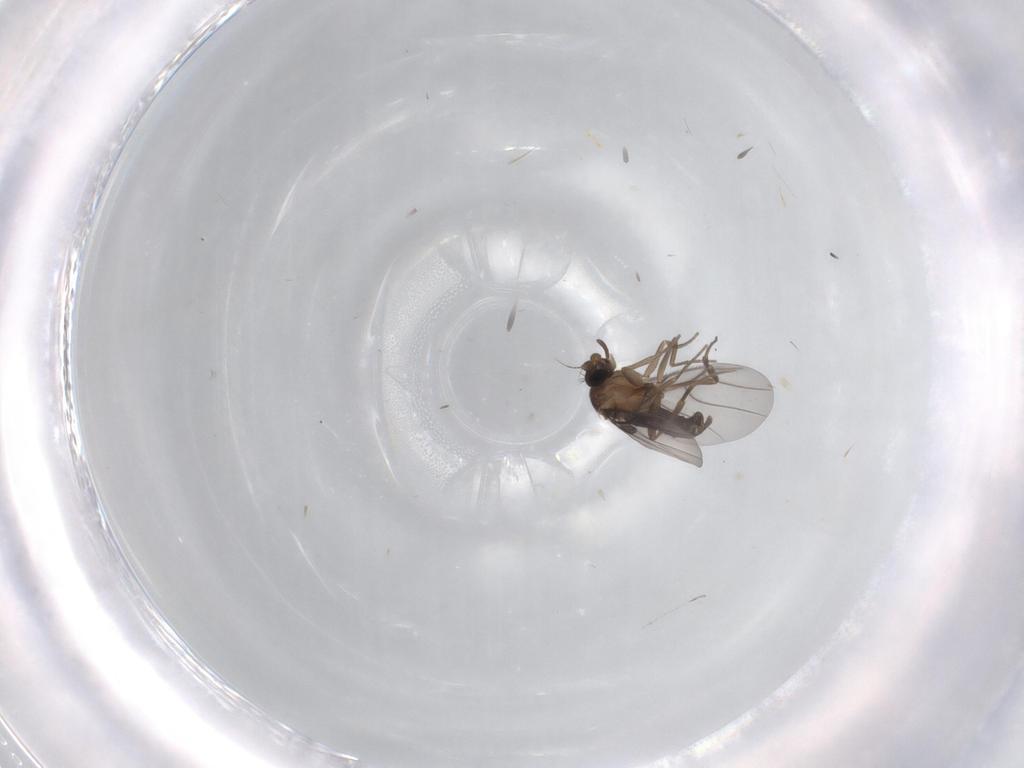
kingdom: Animalia
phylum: Arthropoda
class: Insecta
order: Diptera
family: Phoridae
